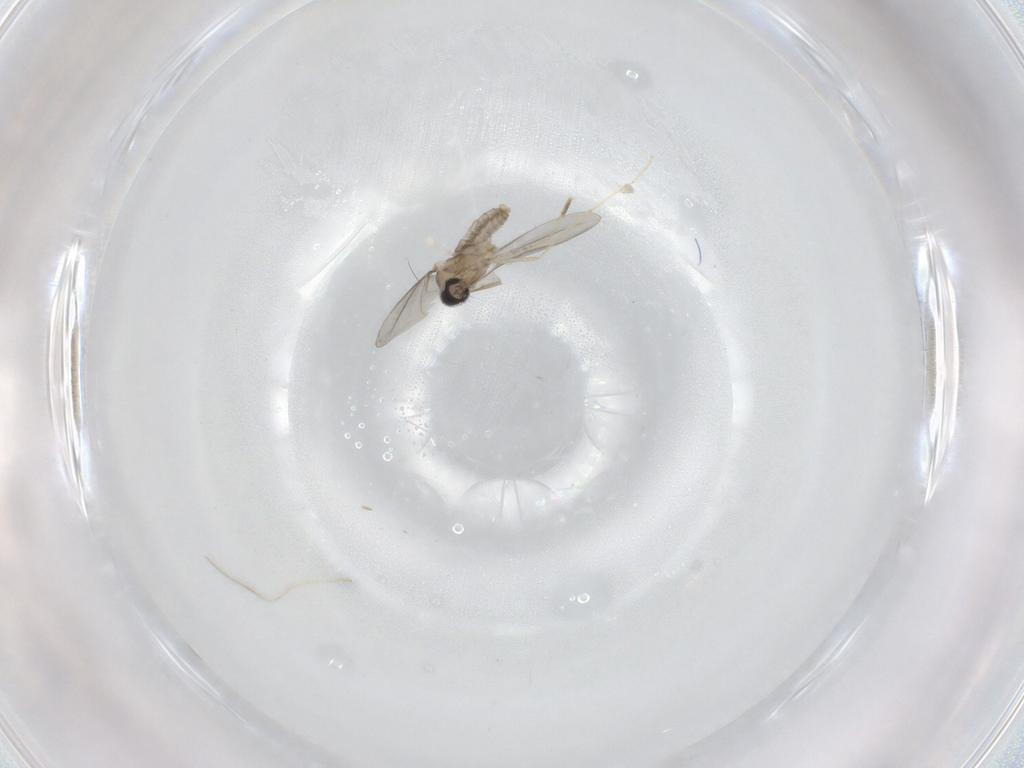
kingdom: Animalia
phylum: Arthropoda
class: Insecta
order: Diptera
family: Cecidomyiidae
